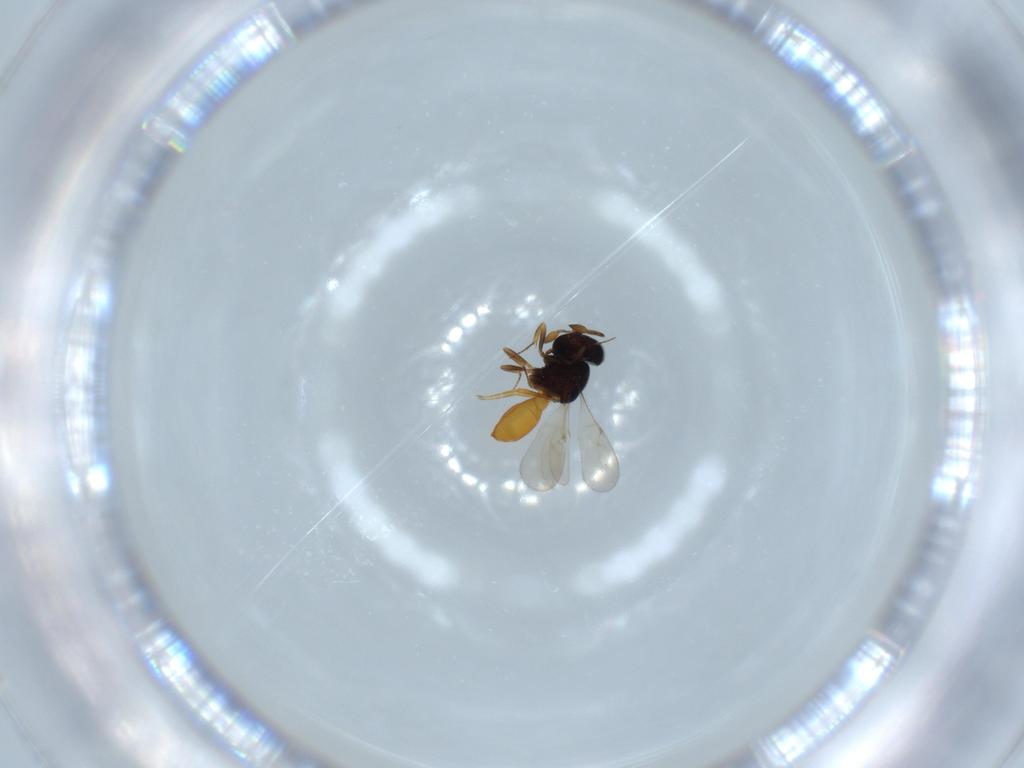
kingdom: Animalia
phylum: Arthropoda
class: Insecta
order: Hymenoptera
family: Scelionidae
